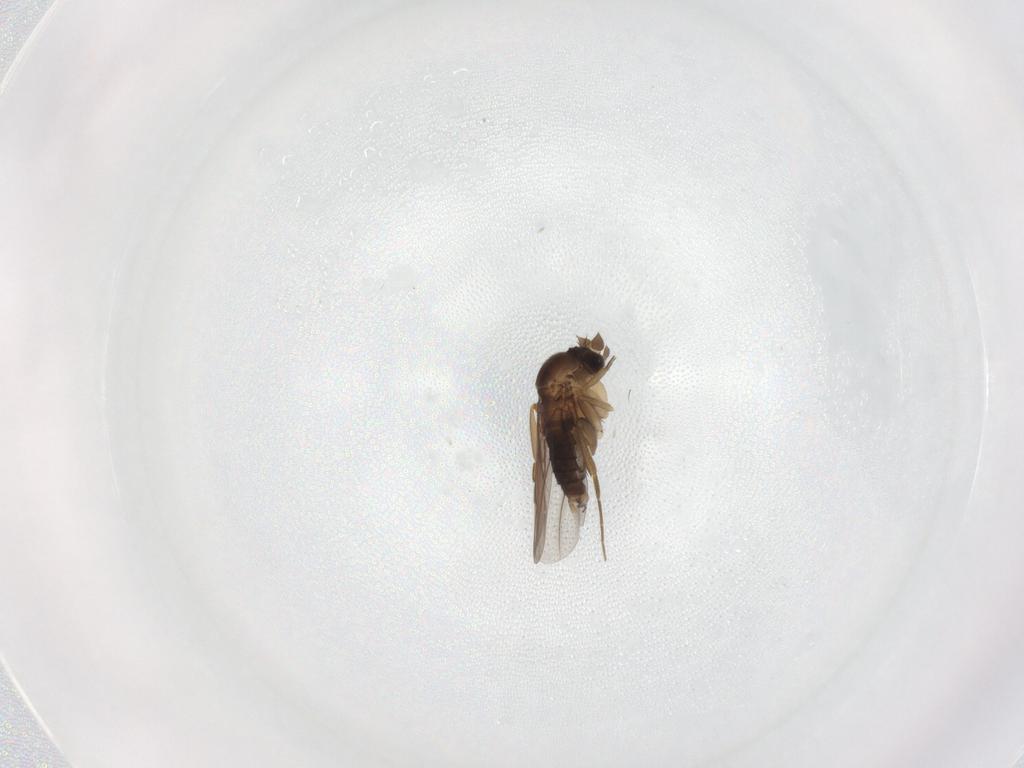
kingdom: Animalia
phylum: Arthropoda
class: Insecta
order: Diptera
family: Phoridae
